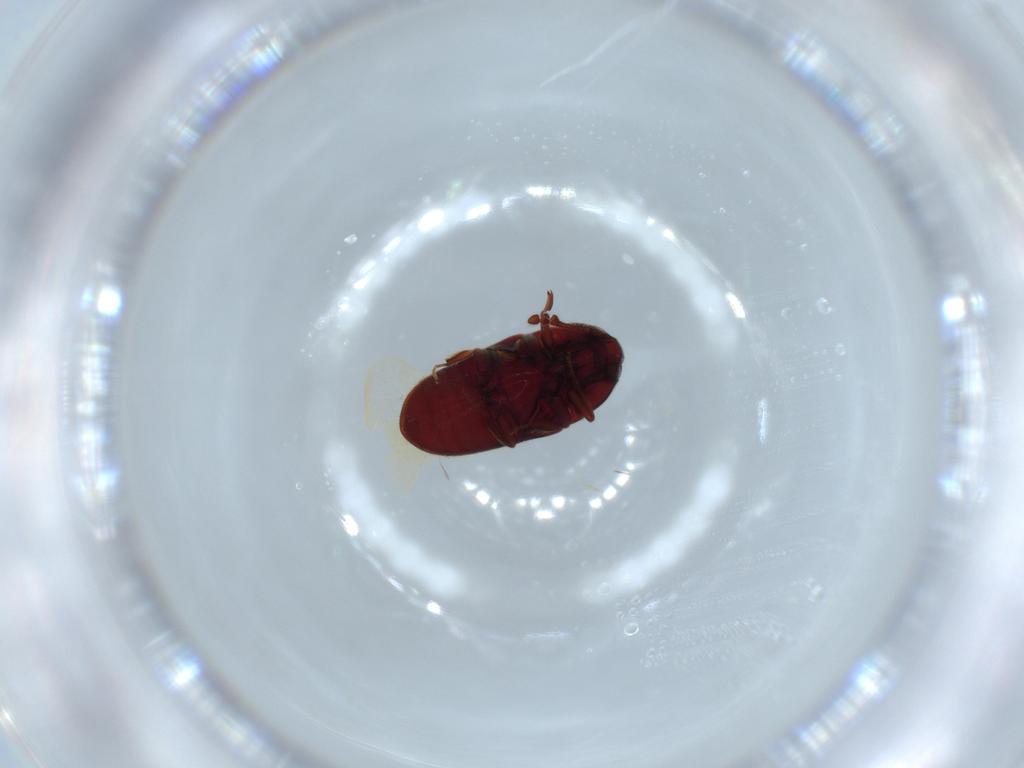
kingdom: Animalia
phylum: Arthropoda
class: Insecta
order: Coleoptera
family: Throscidae
